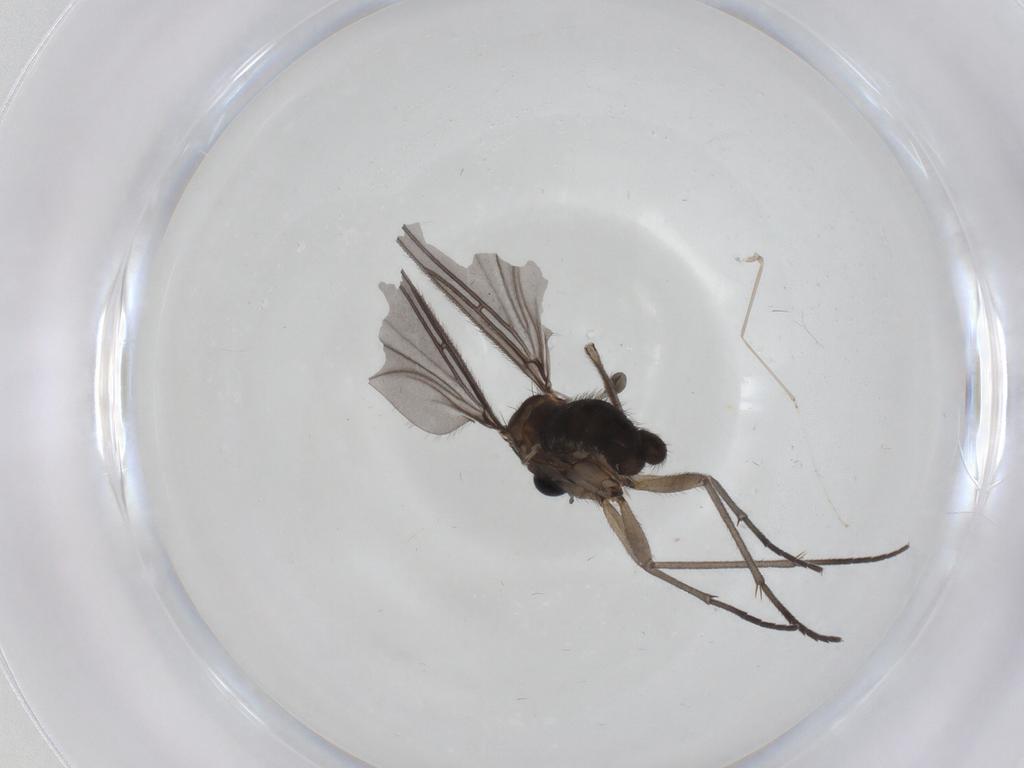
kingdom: Animalia
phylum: Arthropoda
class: Insecta
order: Diptera
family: Sciaridae
